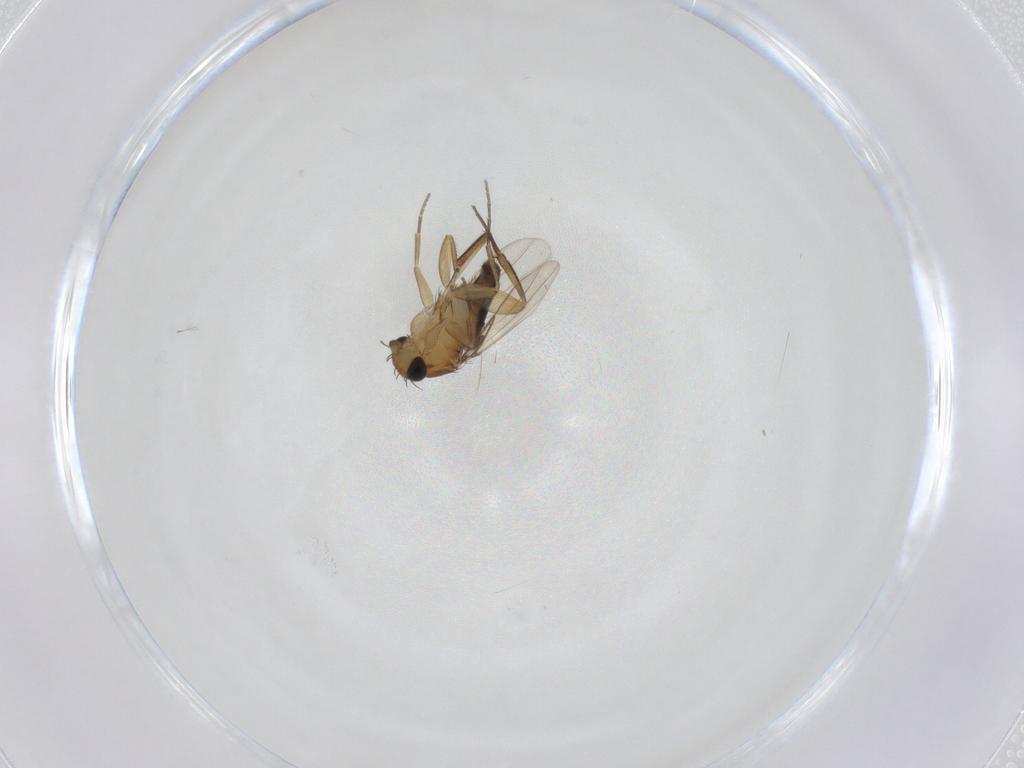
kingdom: Animalia
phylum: Arthropoda
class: Insecta
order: Diptera
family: Phoridae
